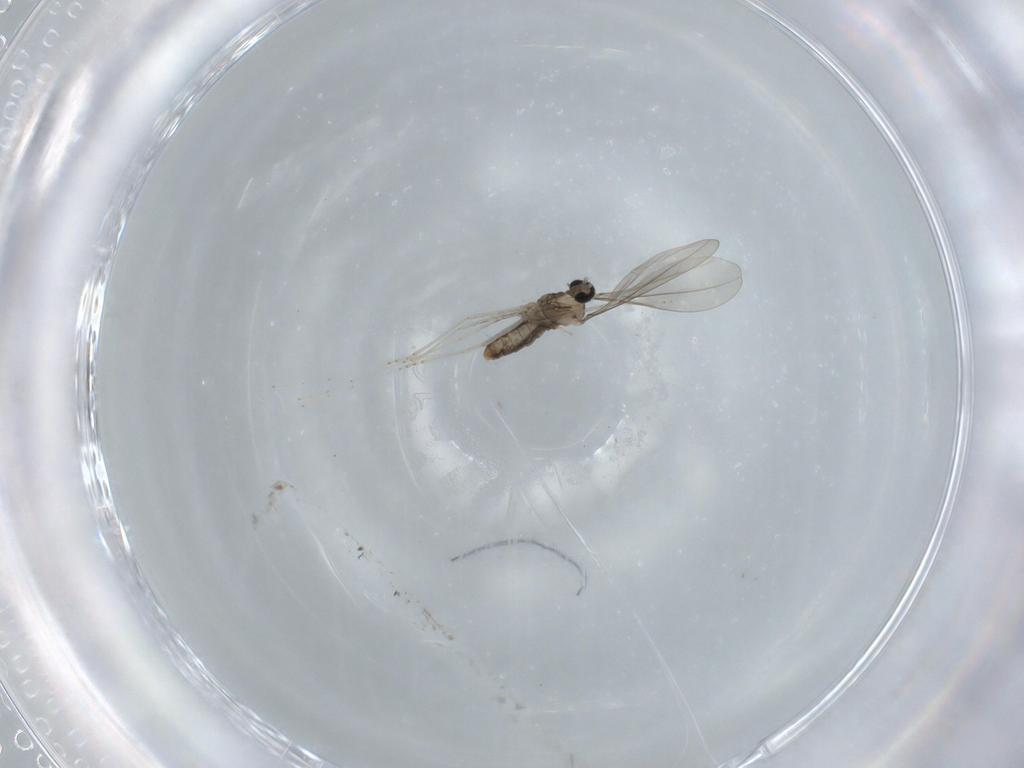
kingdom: Animalia
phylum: Arthropoda
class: Insecta
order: Diptera
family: Cecidomyiidae
